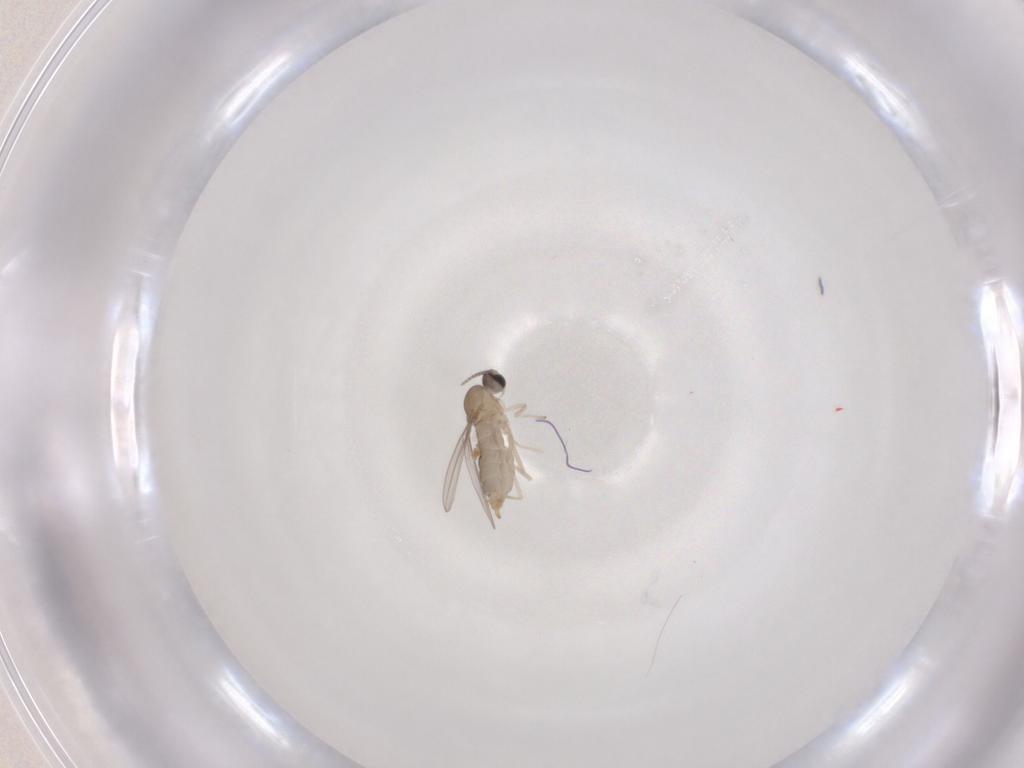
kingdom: Animalia
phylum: Arthropoda
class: Insecta
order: Diptera
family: Cecidomyiidae
